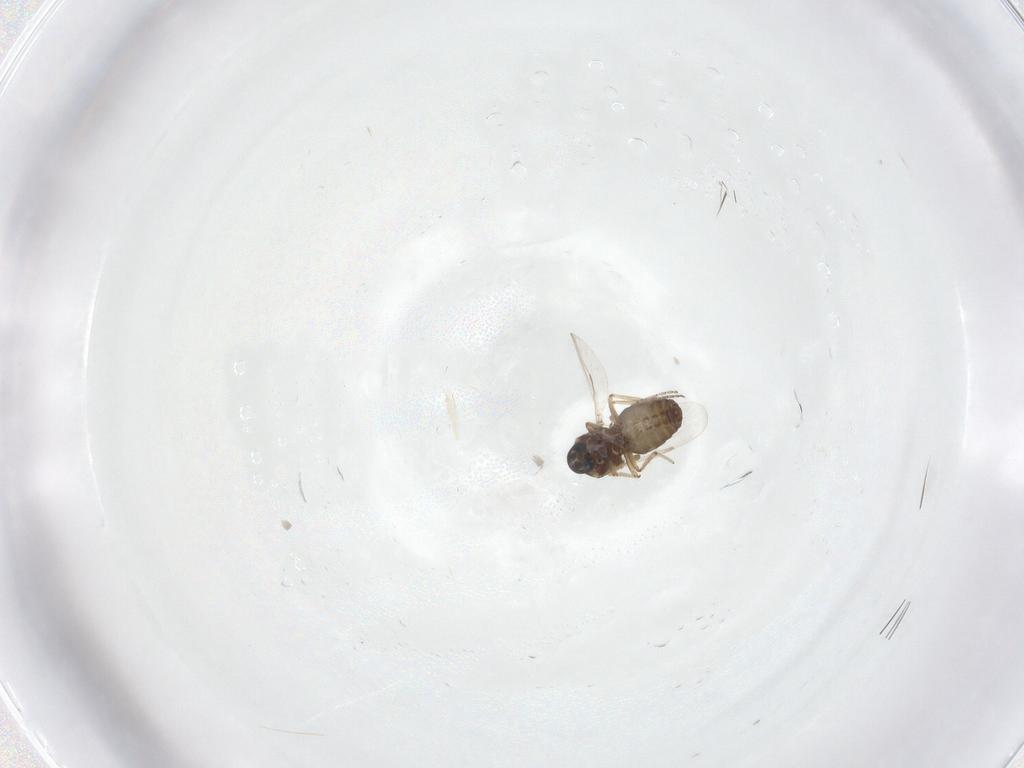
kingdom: Animalia
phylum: Arthropoda
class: Insecta
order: Diptera
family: Ceratopogonidae
